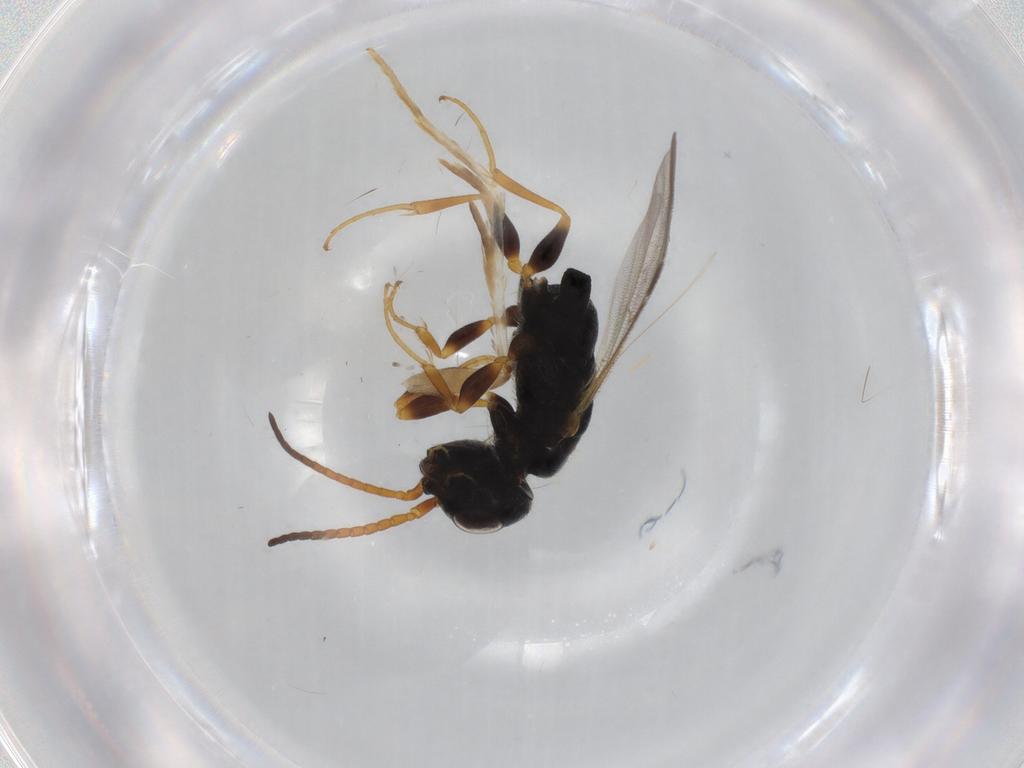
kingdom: Animalia
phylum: Arthropoda
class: Insecta
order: Hymenoptera
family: Bethylidae
